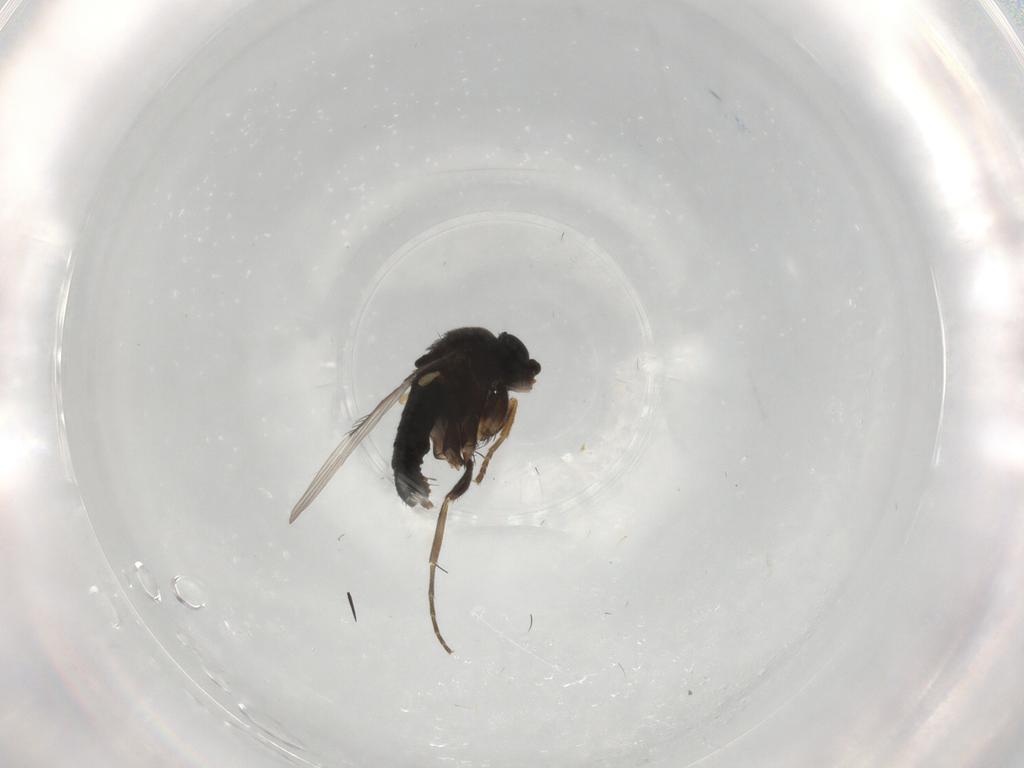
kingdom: Animalia
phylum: Arthropoda
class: Insecta
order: Diptera
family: Phoridae
